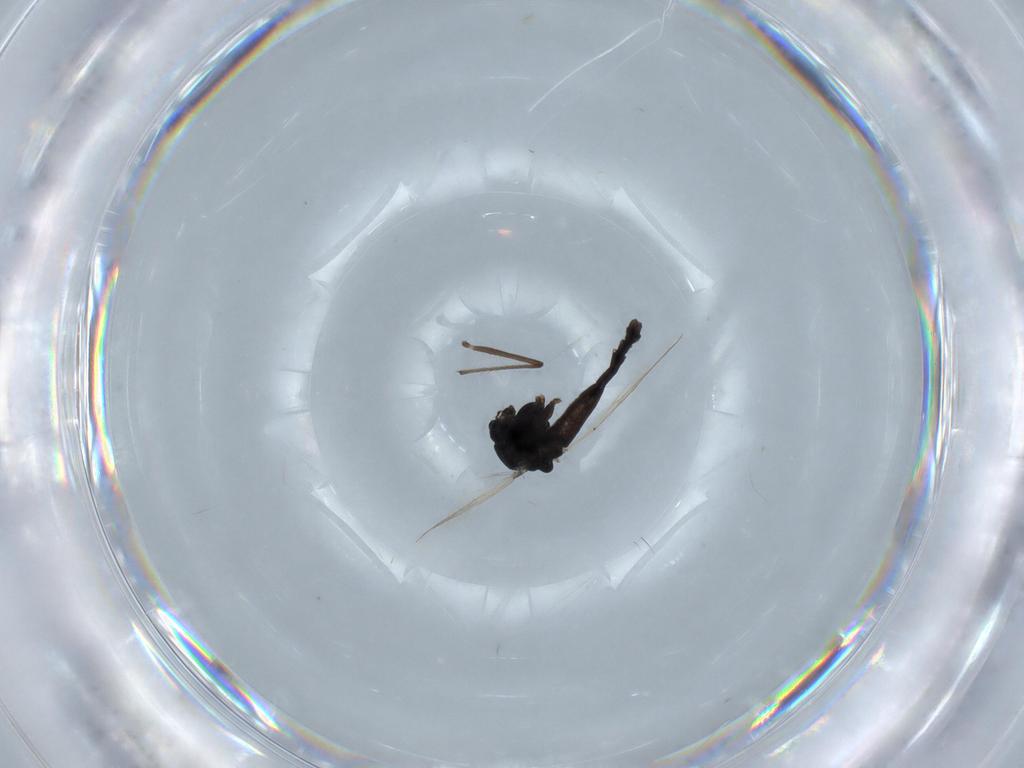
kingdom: Animalia
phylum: Arthropoda
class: Insecta
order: Diptera
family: Chironomidae
